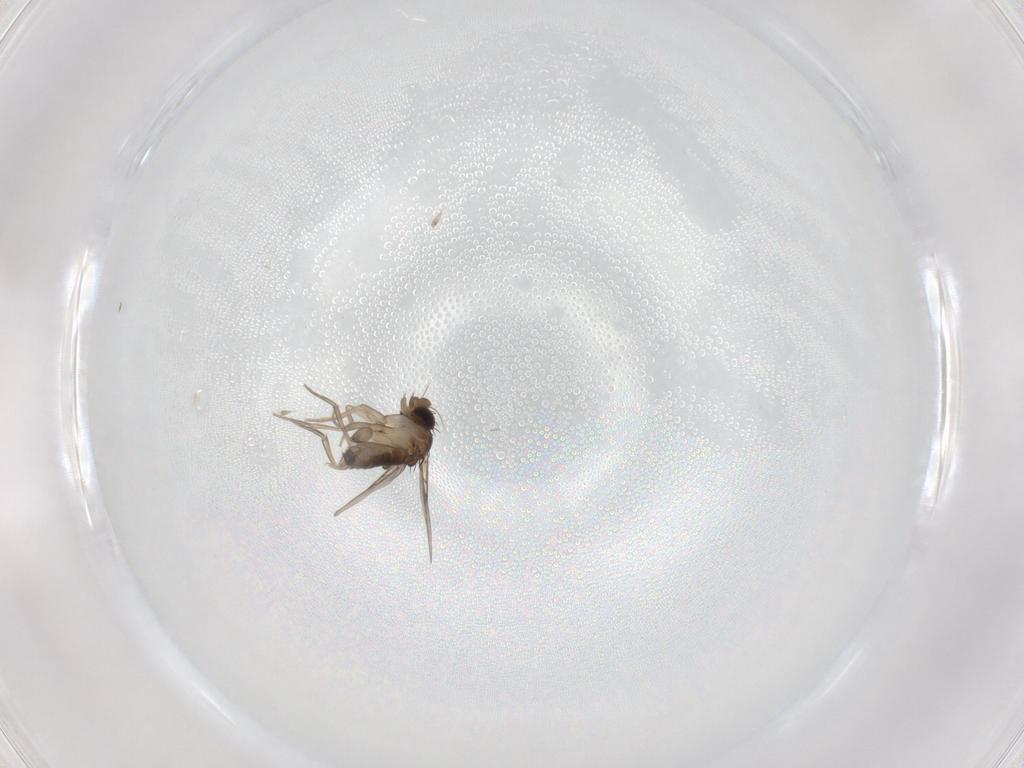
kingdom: Animalia
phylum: Arthropoda
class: Insecta
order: Diptera
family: Phoridae
